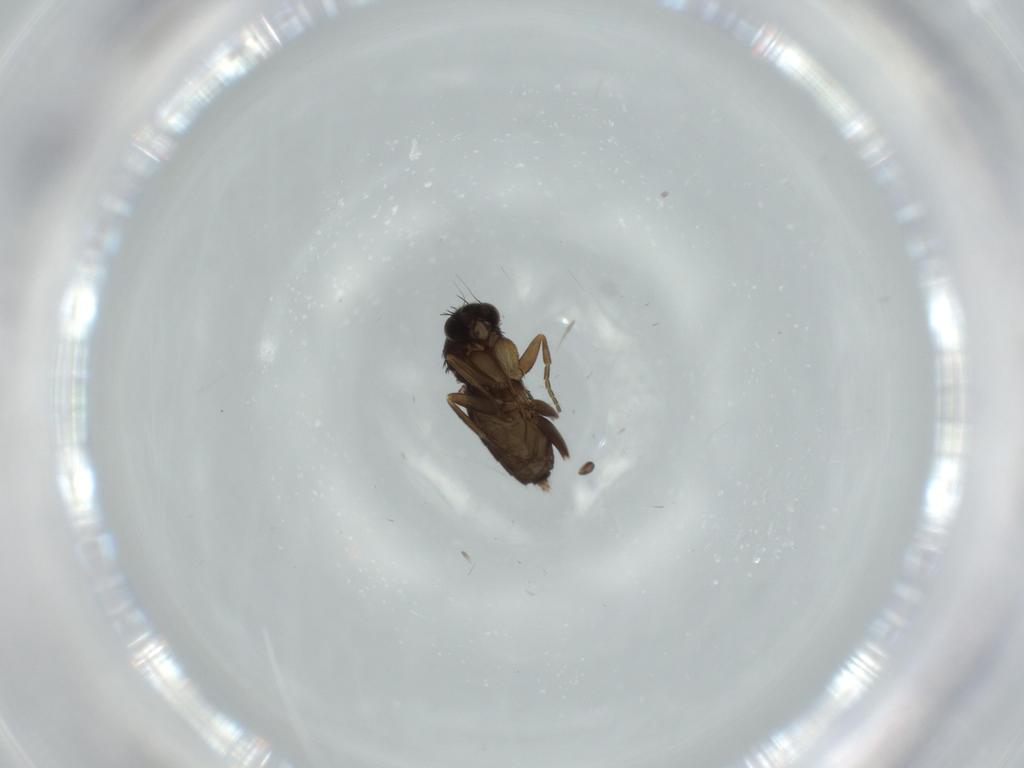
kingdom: Animalia
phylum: Arthropoda
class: Insecta
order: Diptera
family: Phoridae
